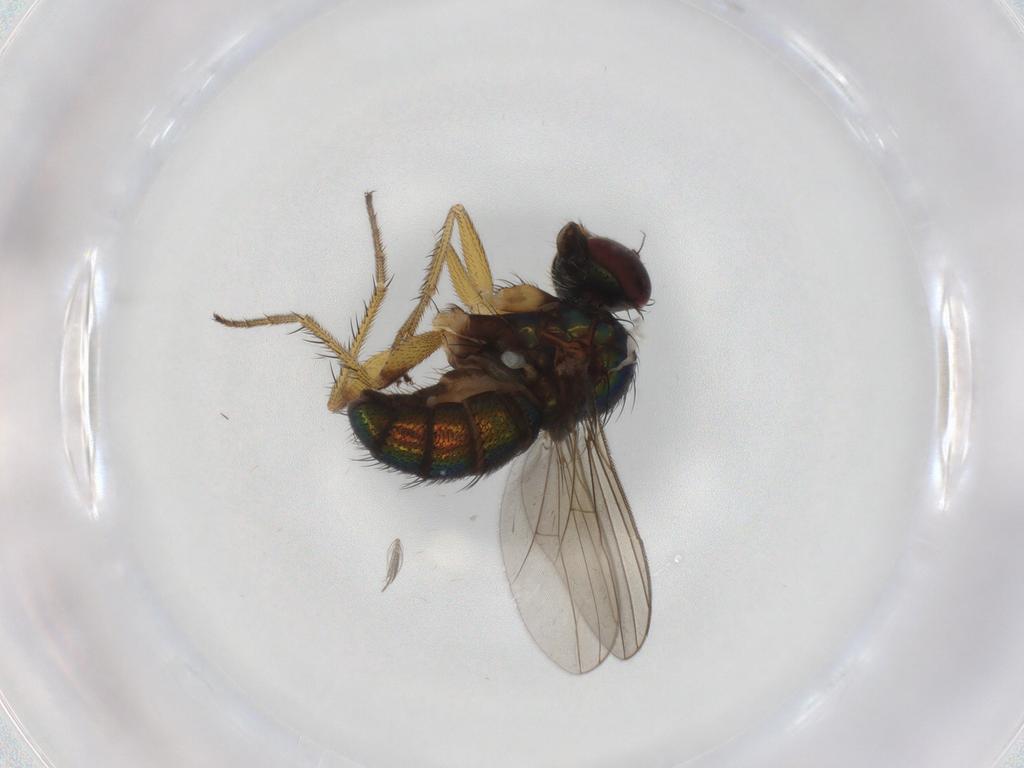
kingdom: Animalia
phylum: Arthropoda
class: Insecta
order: Diptera
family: Dolichopodidae
